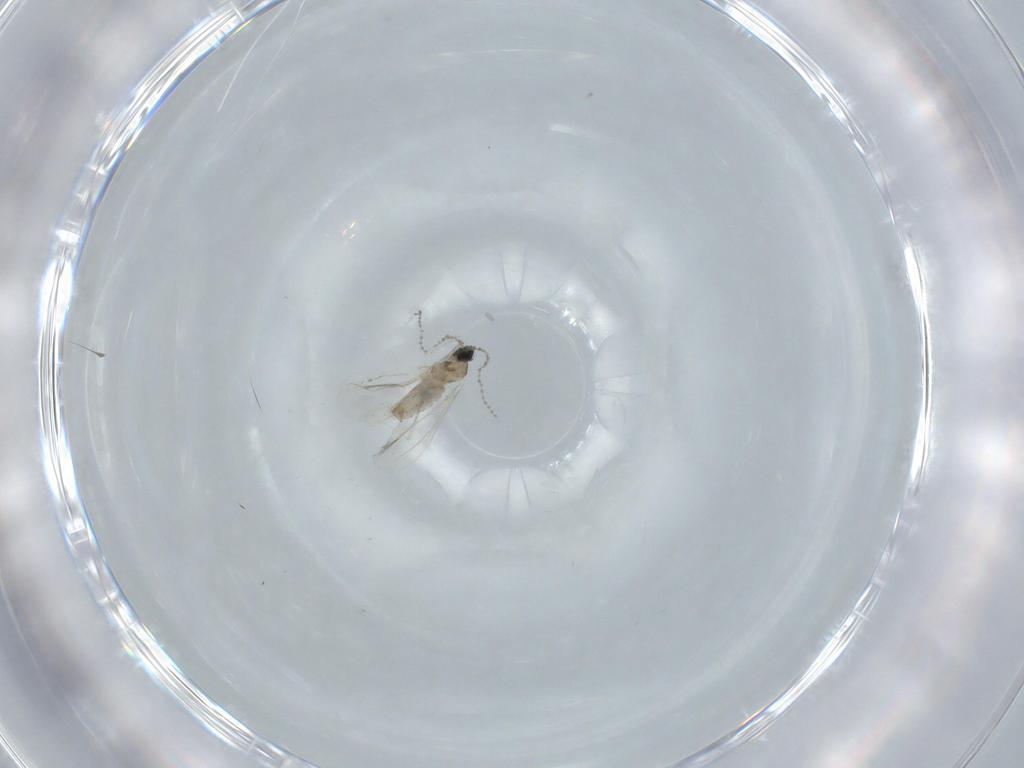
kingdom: Animalia
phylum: Arthropoda
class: Insecta
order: Diptera
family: Cecidomyiidae
